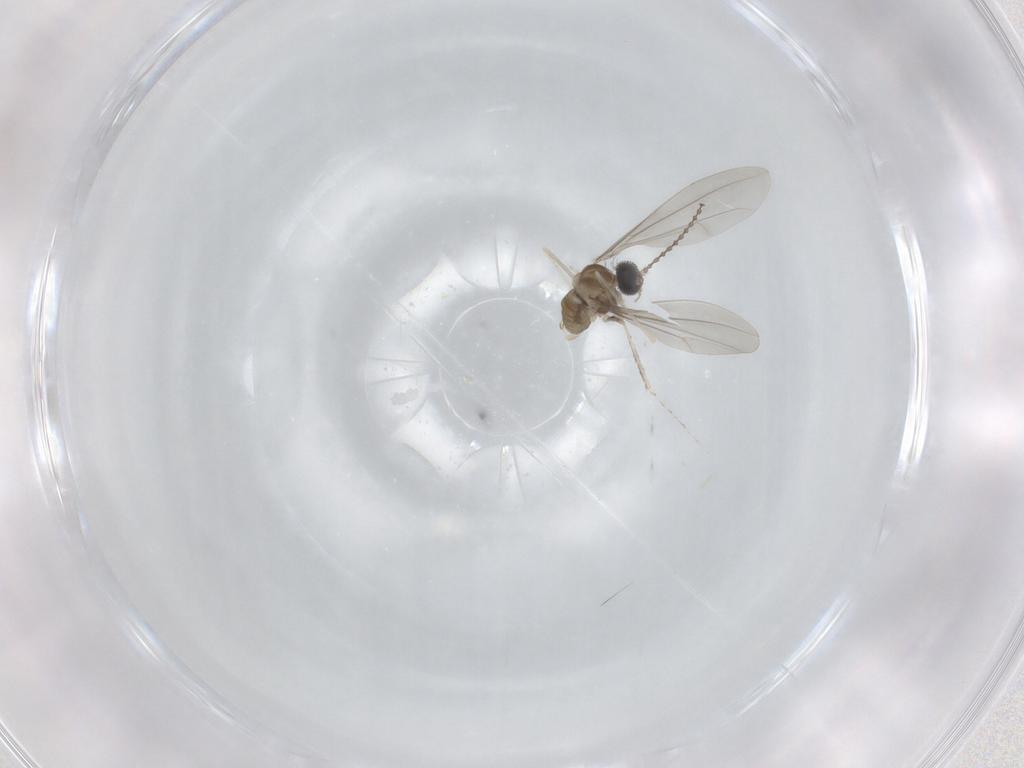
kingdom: Animalia
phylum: Arthropoda
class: Insecta
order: Diptera
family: Cecidomyiidae
